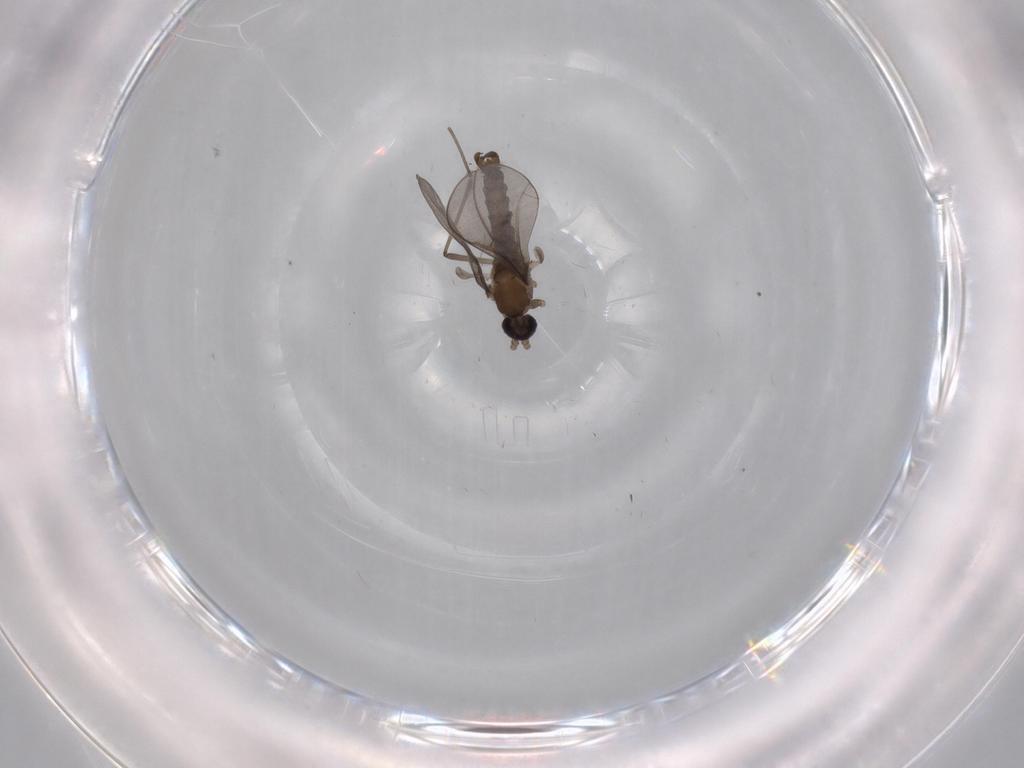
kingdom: Animalia
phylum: Arthropoda
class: Insecta
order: Diptera
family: Cecidomyiidae
